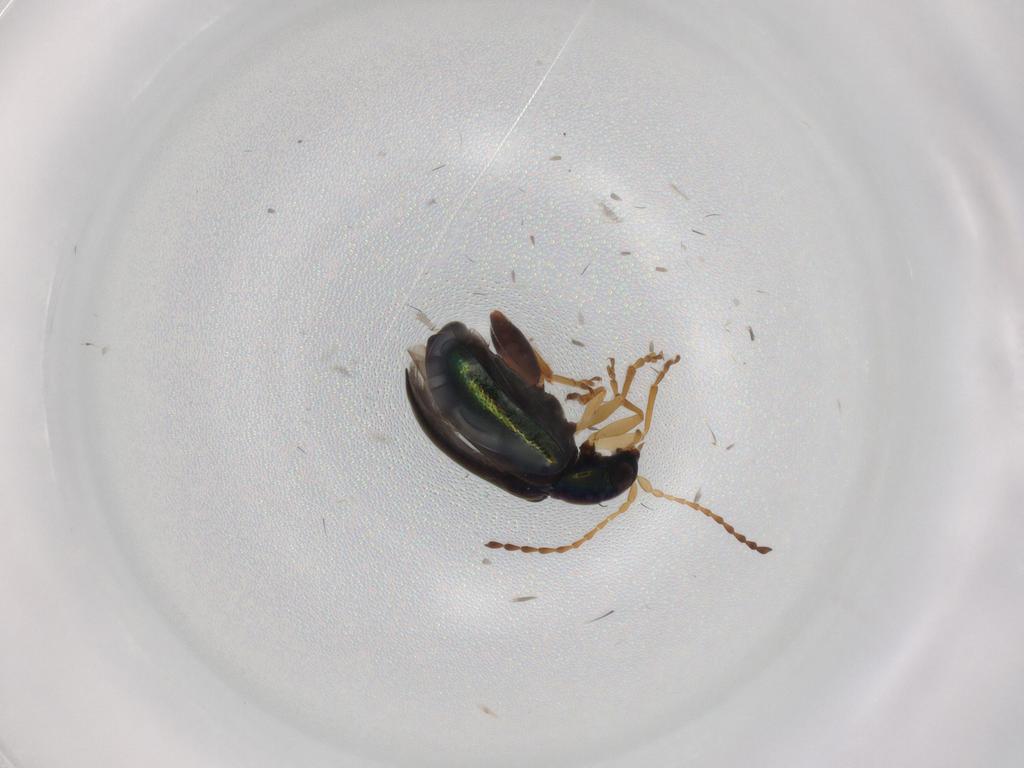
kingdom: Animalia
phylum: Arthropoda
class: Insecta
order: Coleoptera
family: Chrysomelidae
